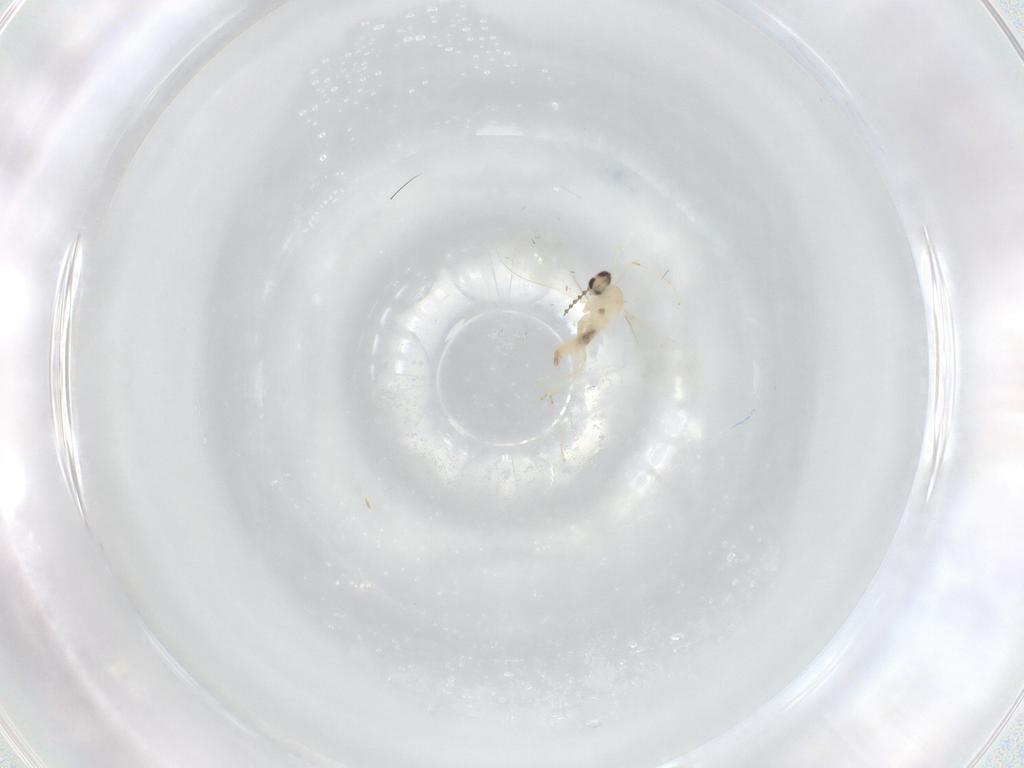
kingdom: Animalia
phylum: Arthropoda
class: Insecta
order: Diptera
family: Cecidomyiidae
